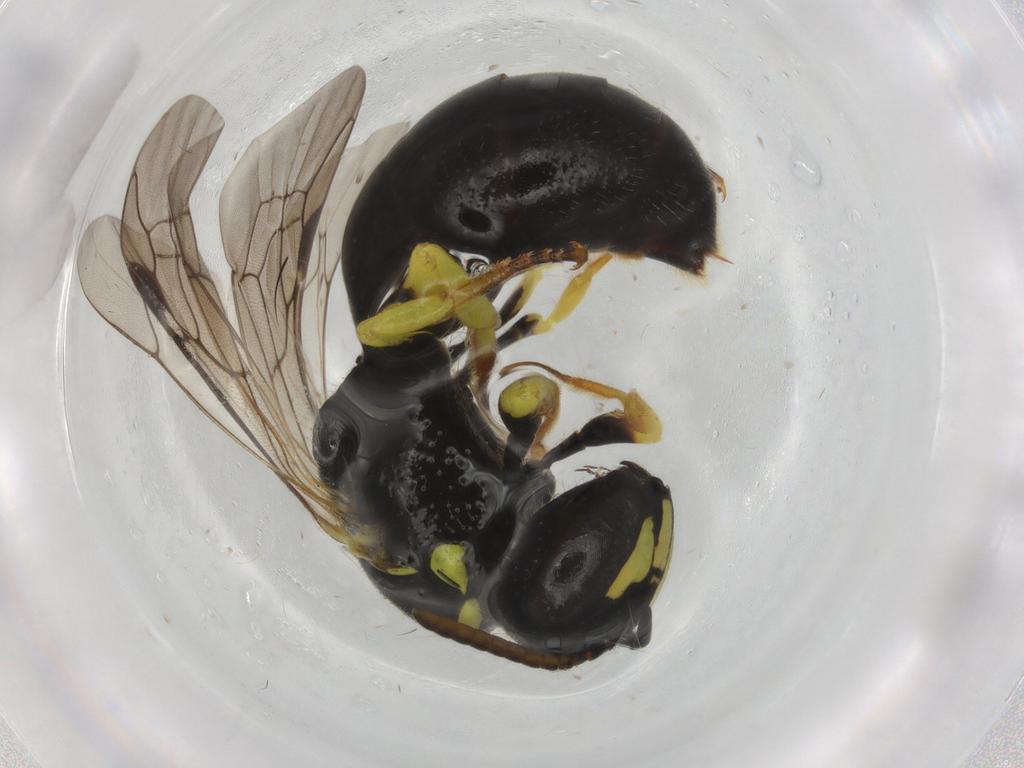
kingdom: Animalia
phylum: Arthropoda
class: Insecta
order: Hymenoptera
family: Colletidae
